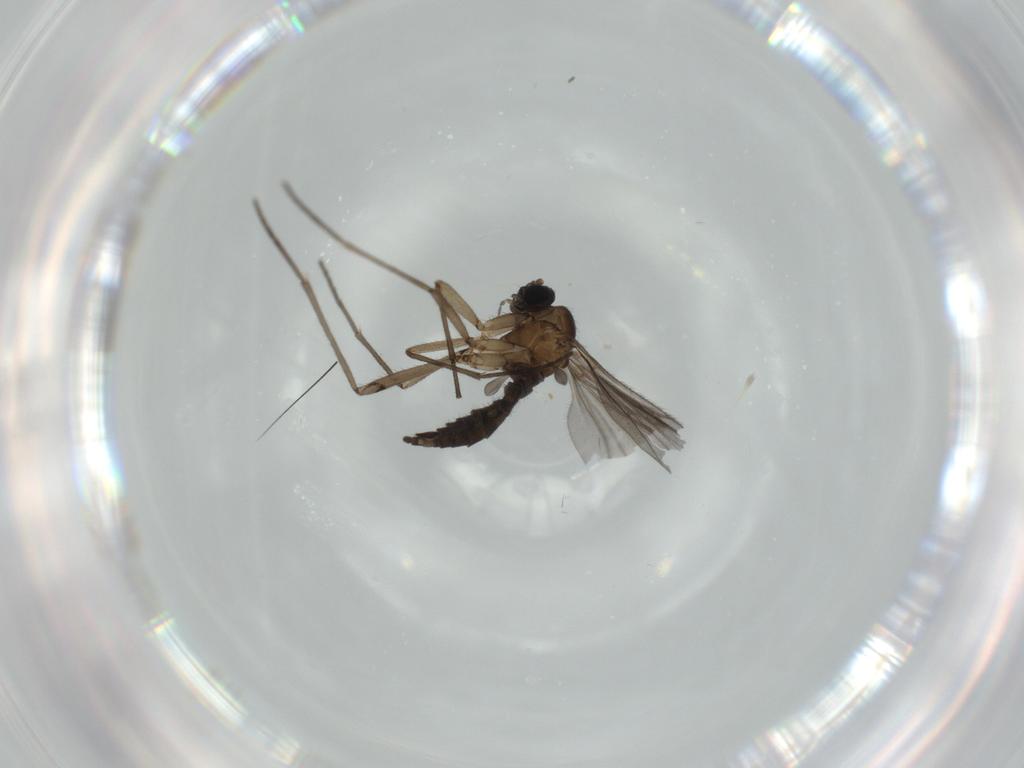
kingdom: Animalia
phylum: Arthropoda
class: Insecta
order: Diptera
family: Sciaridae
